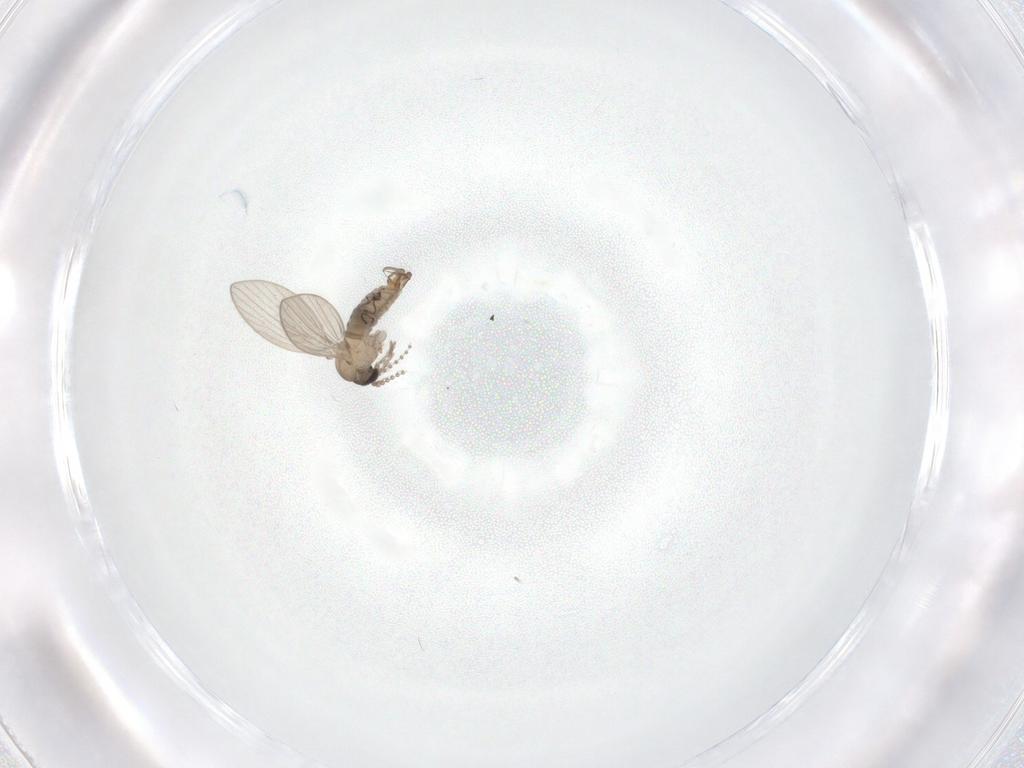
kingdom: Animalia
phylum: Arthropoda
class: Insecta
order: Diptera
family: Psychodidae
